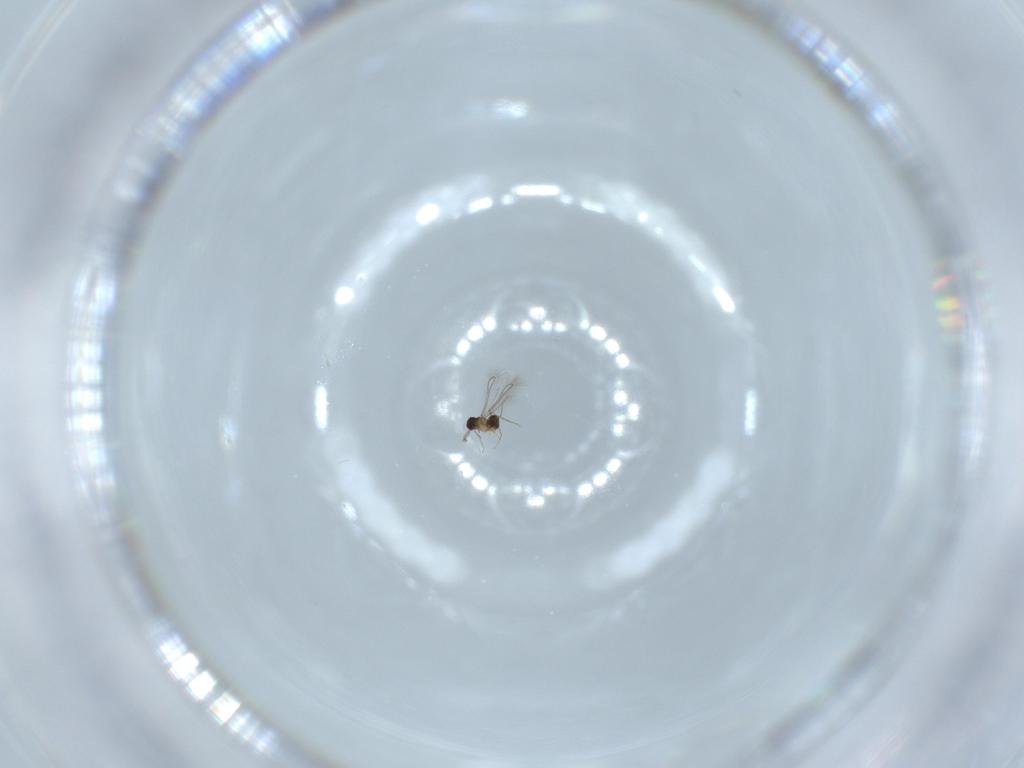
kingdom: Animalia
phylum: Arthropoda
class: Insecta
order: Hymenoptera
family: Mymaridae
